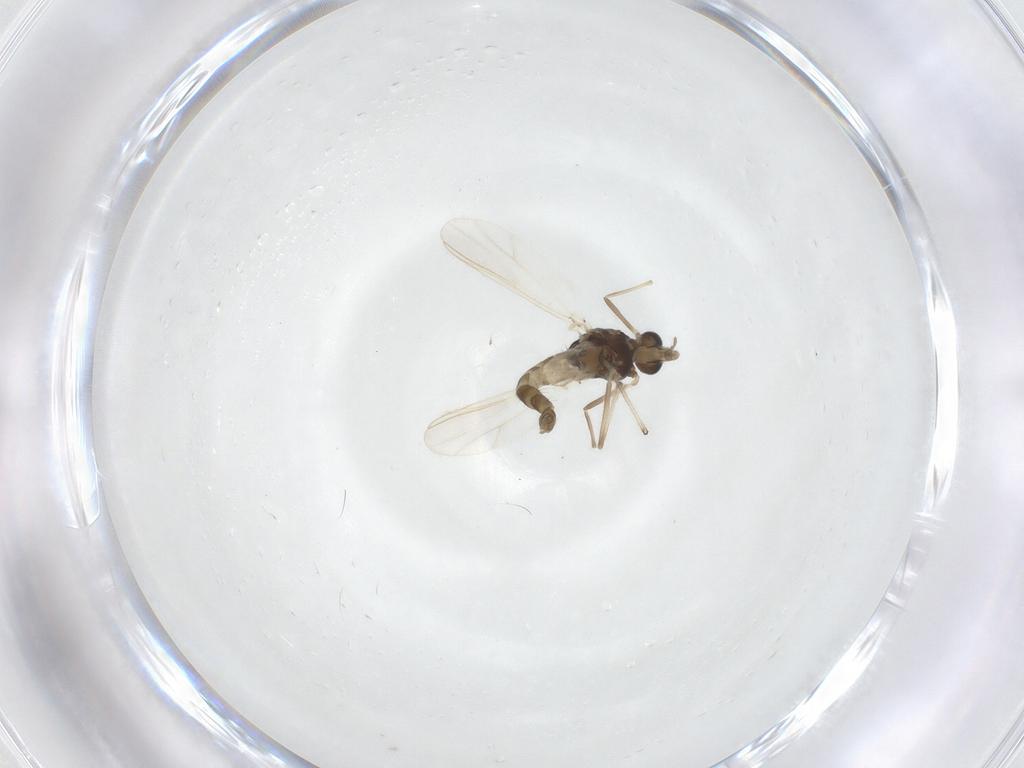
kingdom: Animalia
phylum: Arthropoda
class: Insecta
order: Diptera
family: Chironomidae
